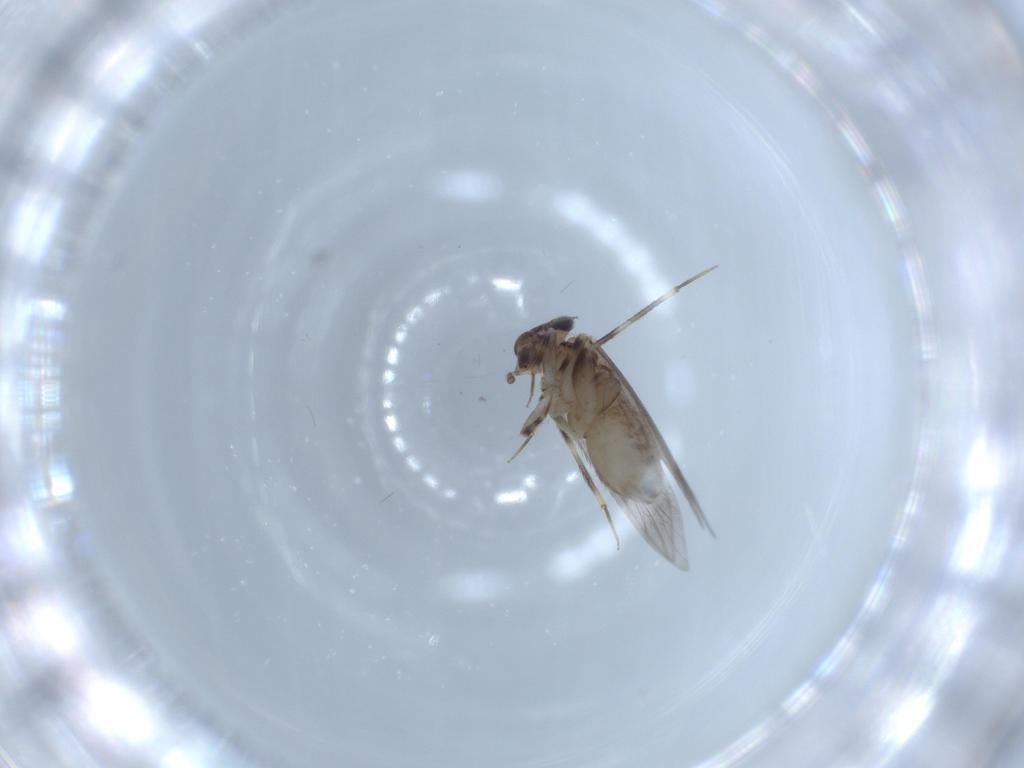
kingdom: Animalia
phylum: Arthropoda
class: Insecta
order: Psocodea
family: Lepidopsocidae
